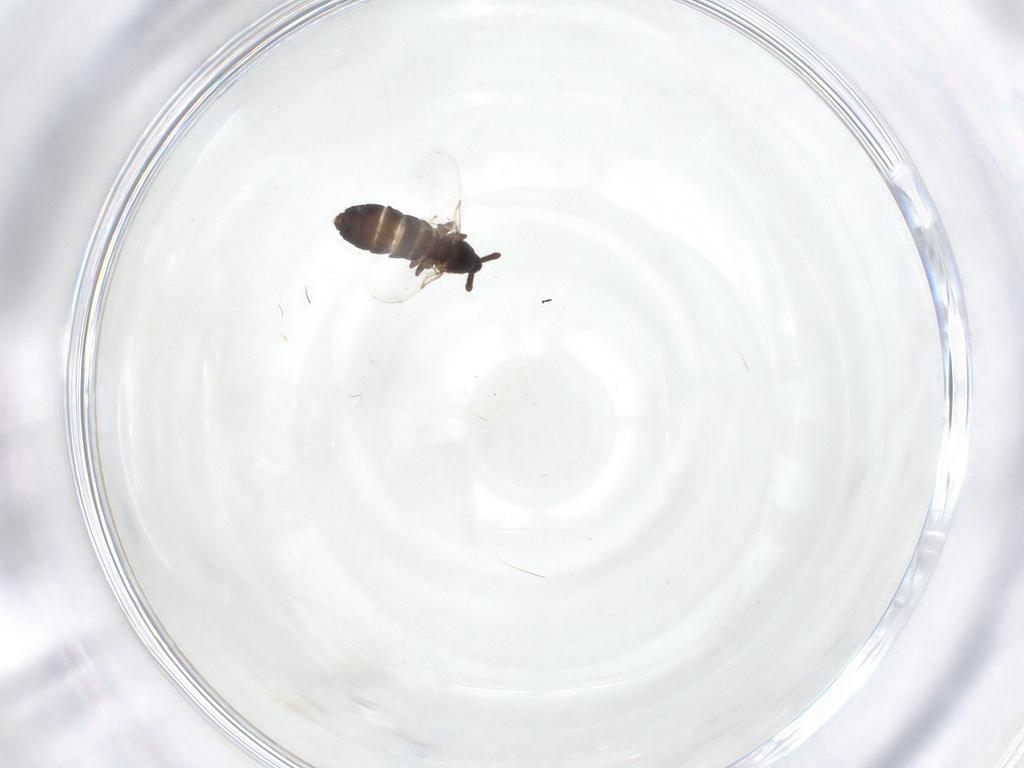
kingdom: Animalia
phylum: Arthropoda
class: Insecta
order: Diptera
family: Scatopsidae
